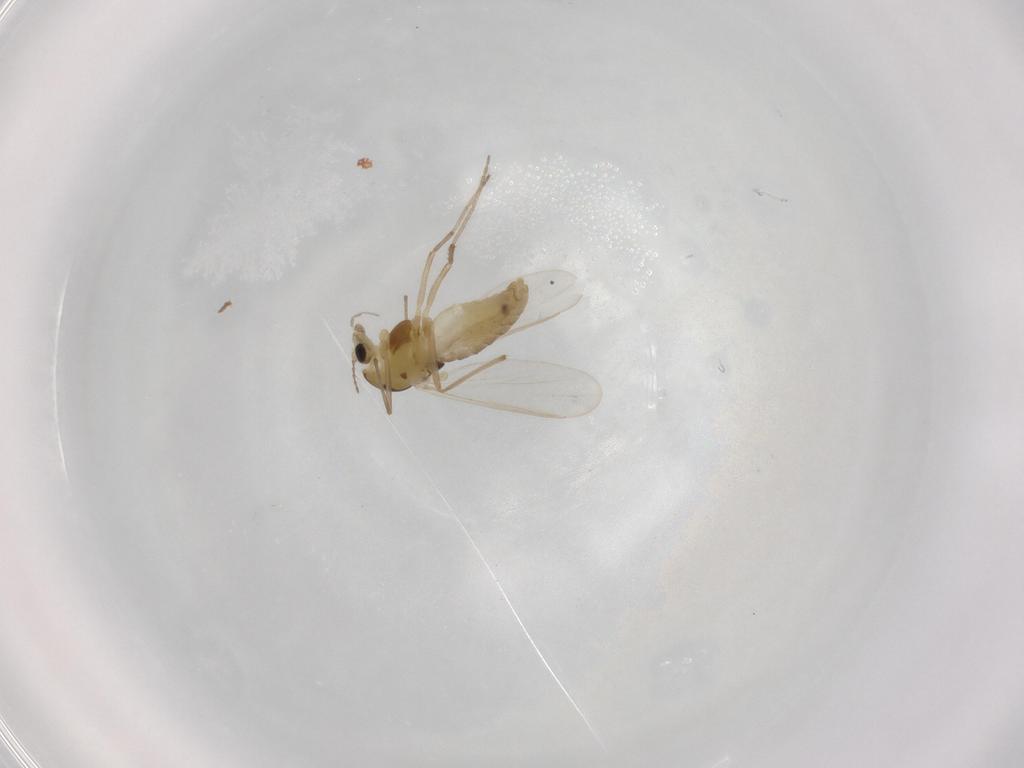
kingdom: Animalia
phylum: Arthropoda
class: Insecta
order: Diptera
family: Chironomidae
